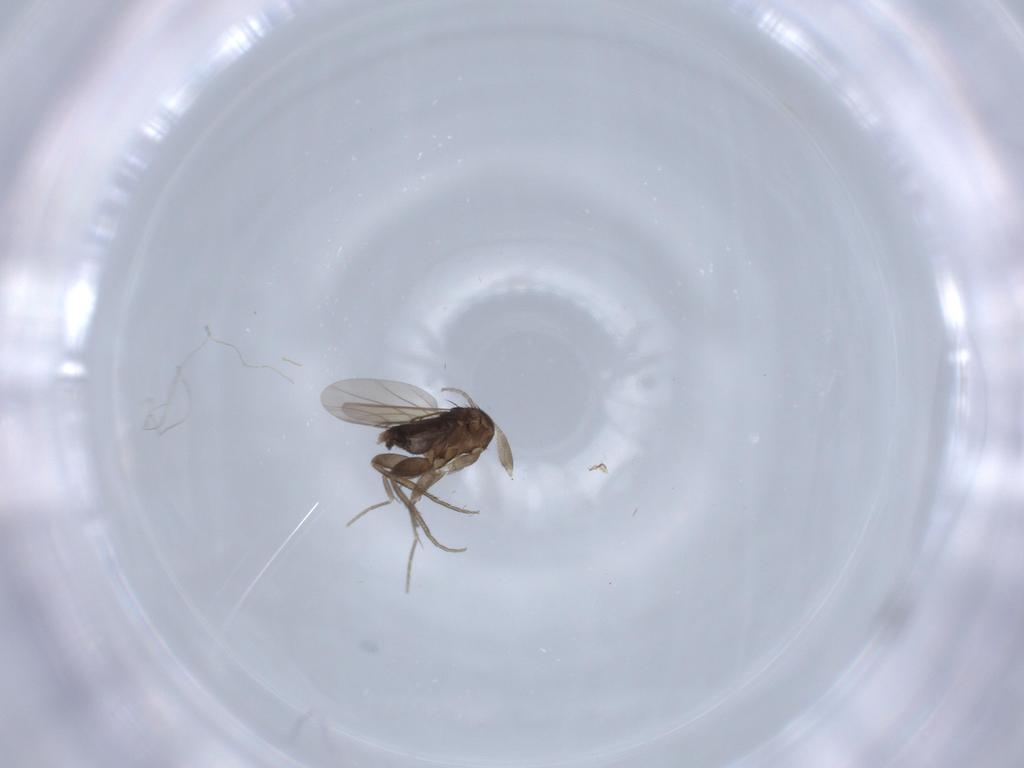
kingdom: Animalia
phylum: Arthropoda
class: Insecta
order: Diptera
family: Phoridae
